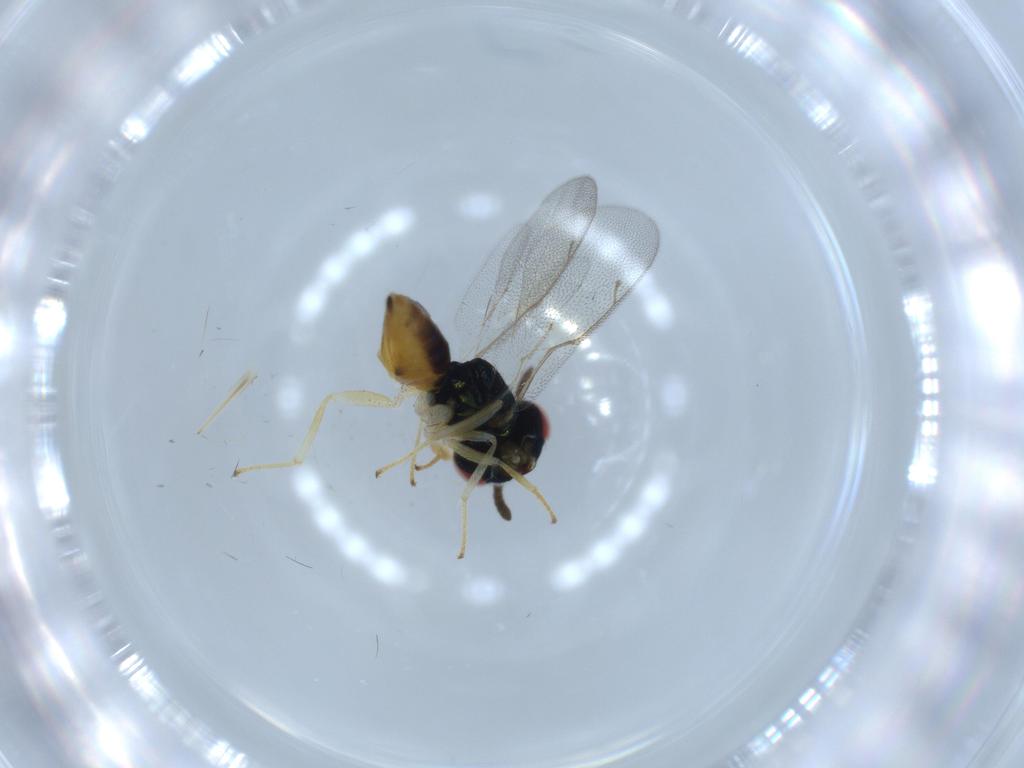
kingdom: Animalia
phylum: Arthropoda
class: Insecta
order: Hymenoptera
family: Pteromalidae
